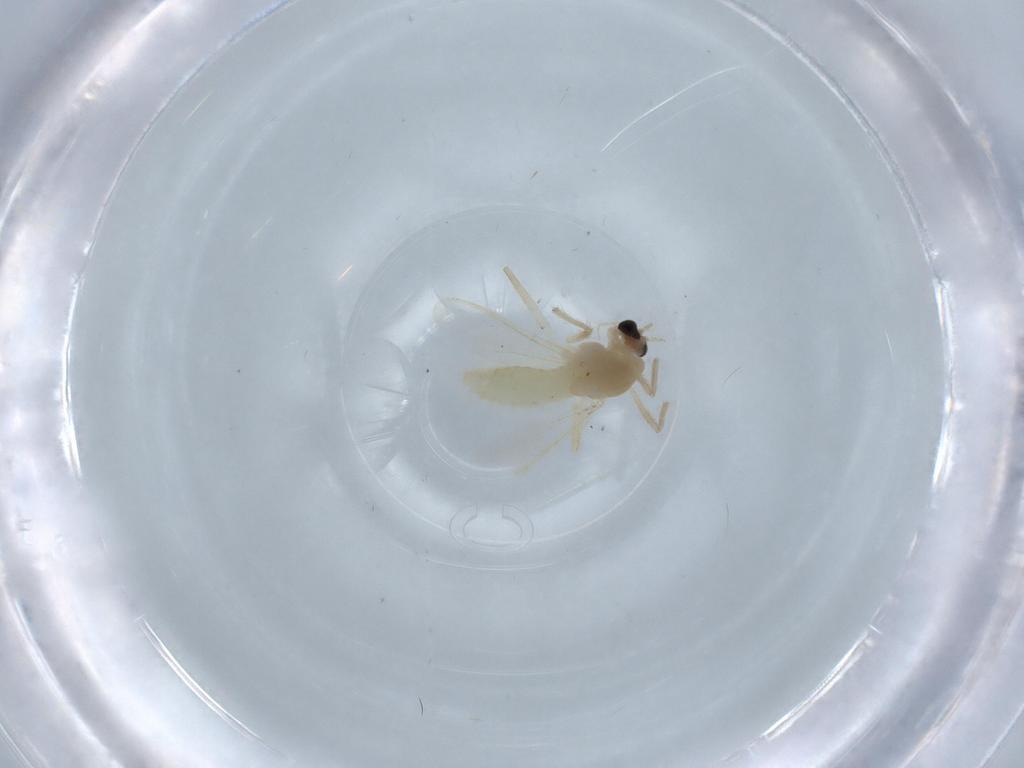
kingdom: Animalia
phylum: Arthropoda
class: Insecta
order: Diptera
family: Chironomidae
